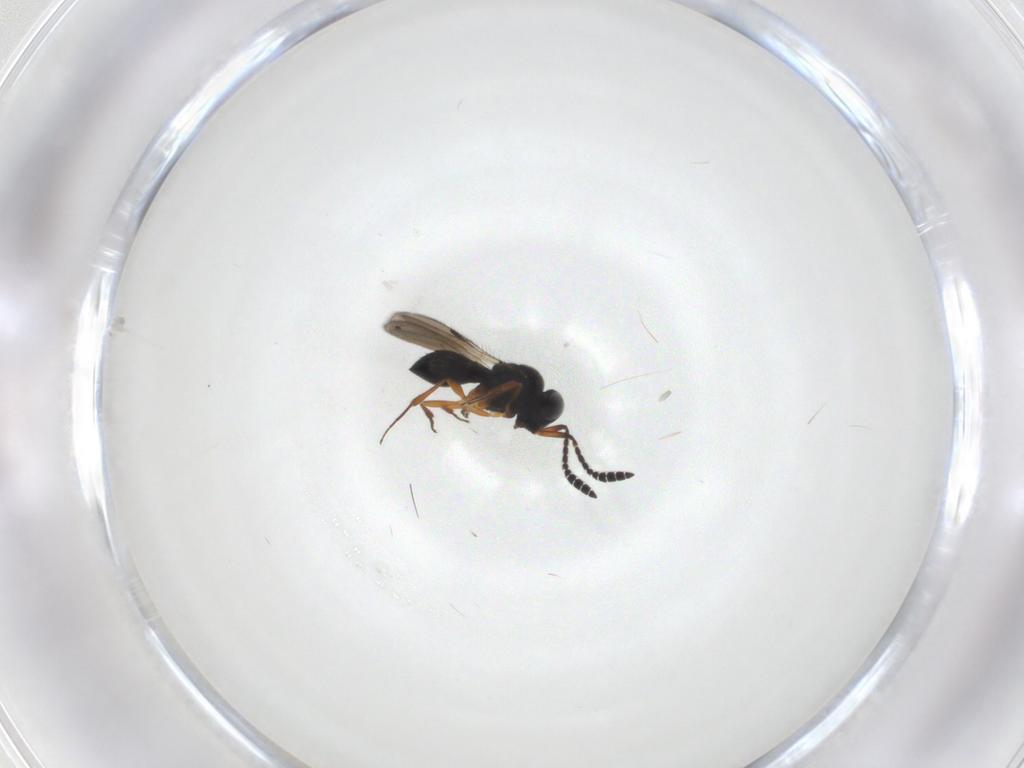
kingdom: Animalia
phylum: Arthropoda
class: Insecta
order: Hymenoptera
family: Scelionidae
